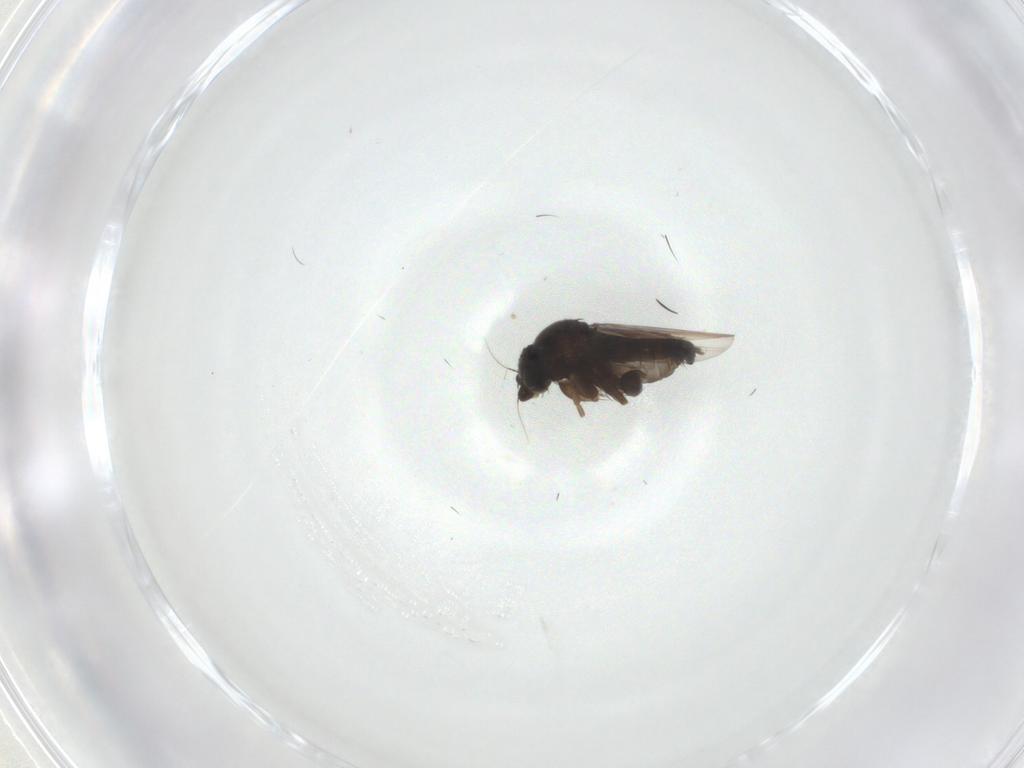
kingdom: Animalia
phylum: Arthropoda
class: Insecta
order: Diptera
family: Phoridae
